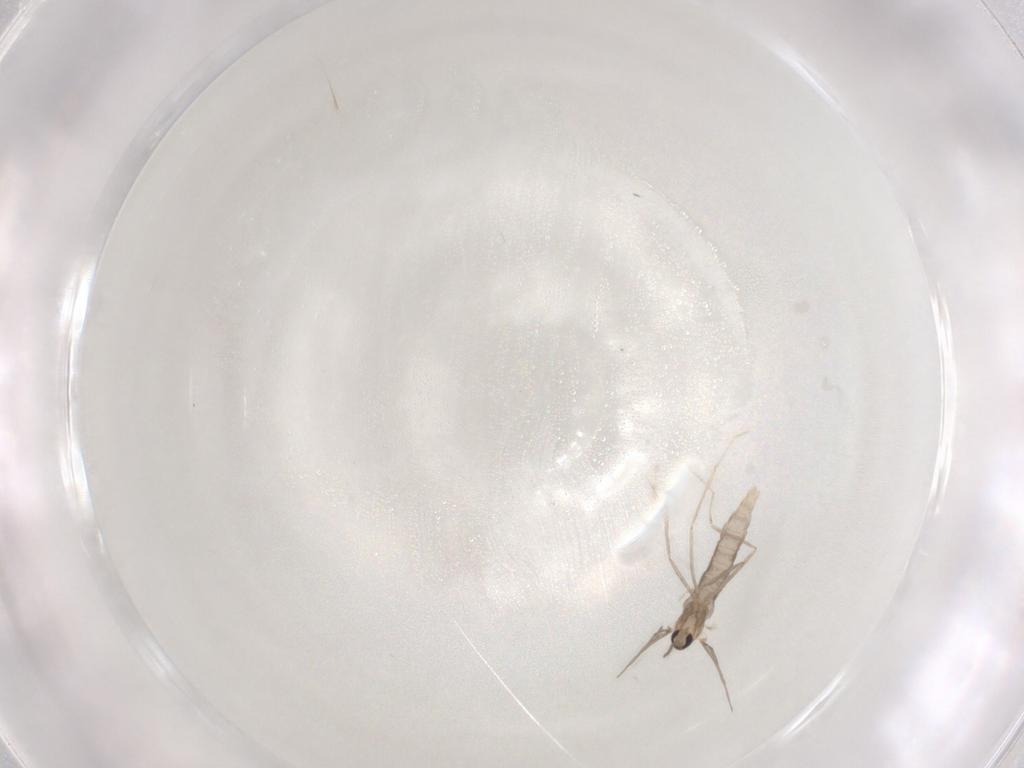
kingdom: Animalia
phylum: Arthropoda
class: Insecta
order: Diptera
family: Cecidomyiidae
